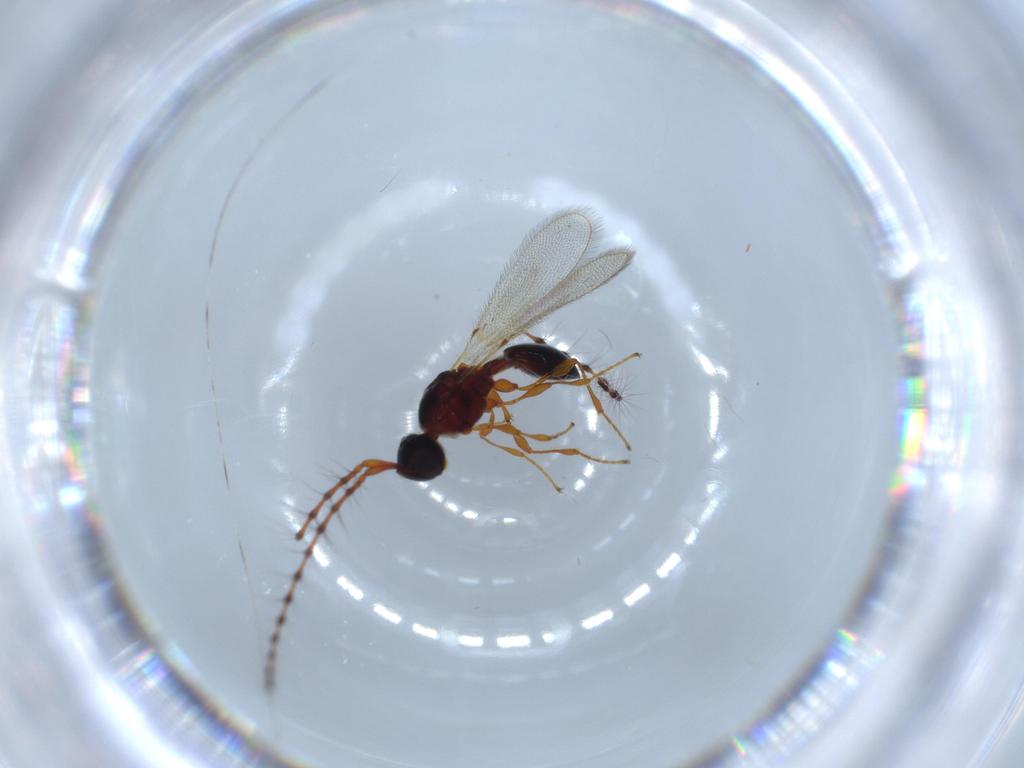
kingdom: Animalia
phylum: Arthropoda
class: Insecta
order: Hymenoptera
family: Diapriidae
